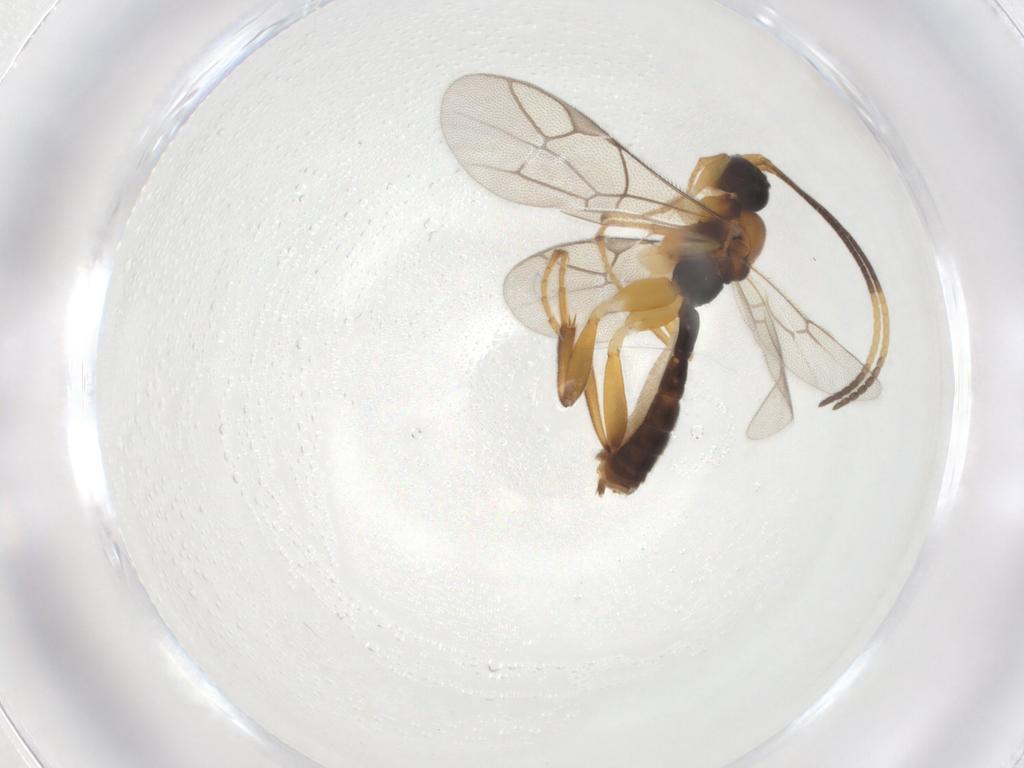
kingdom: Animalia
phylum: Arthropoda
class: Insecta
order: Hymenoptera
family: Ichneumonidae
